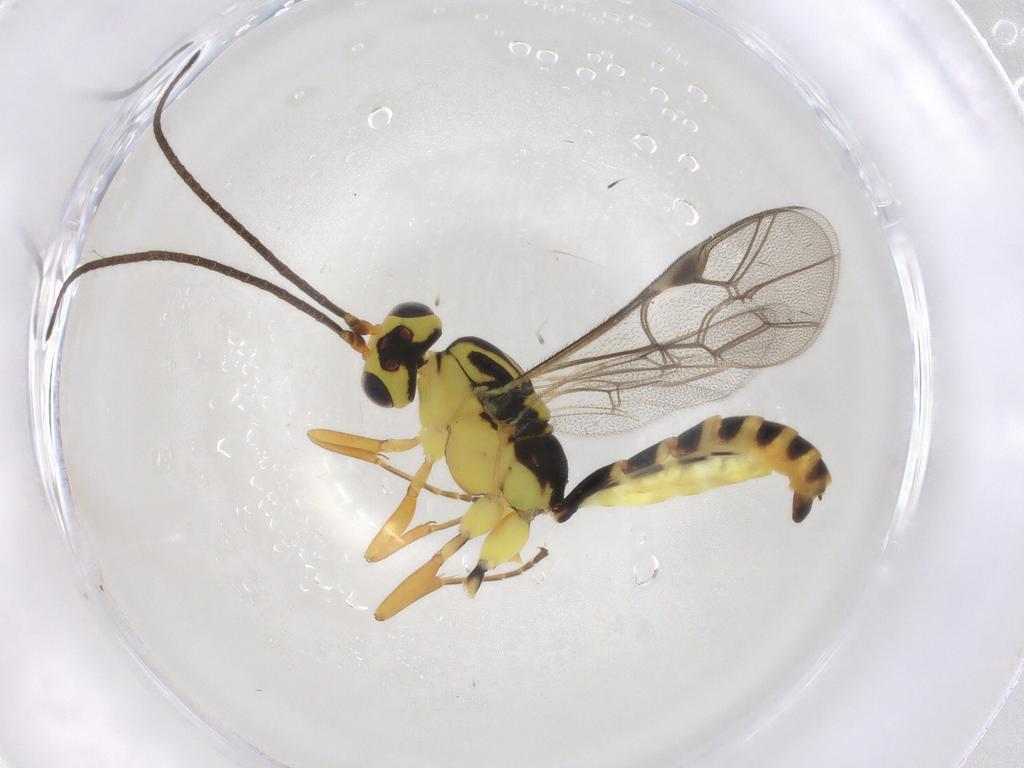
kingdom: Animalia
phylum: Arthropoda
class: Insecta
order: Hymenoptera
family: Ichneumonidae
